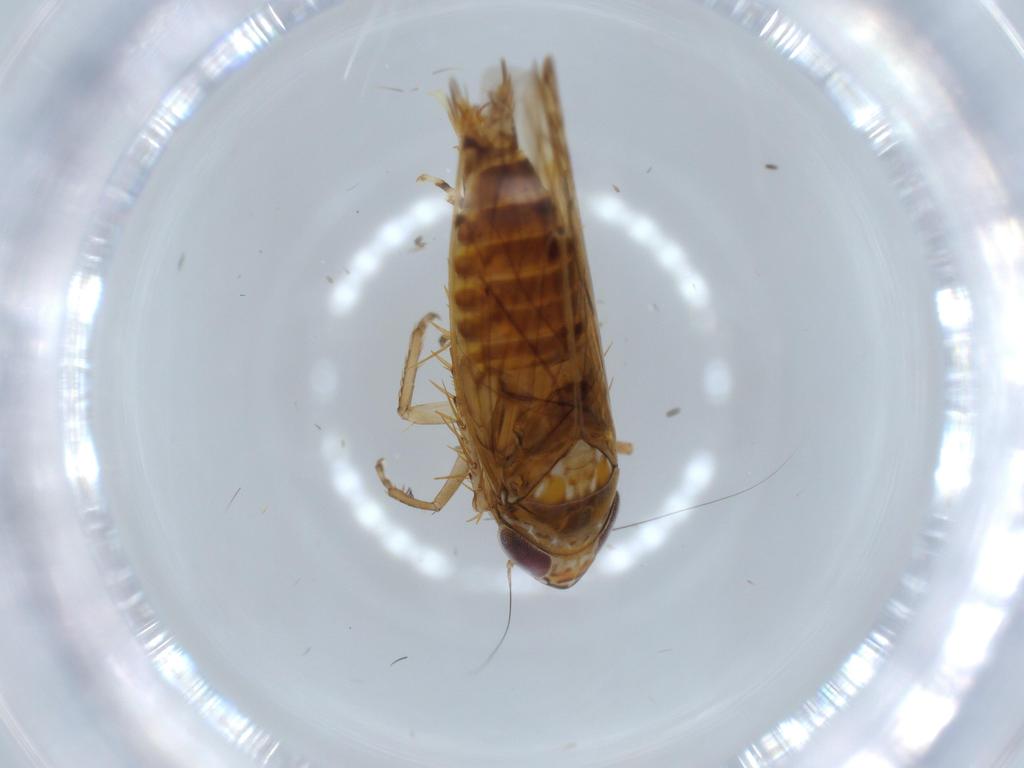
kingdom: Animalia
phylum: Arthropoda
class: Insecta
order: Hemiptera
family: Cicadellidae
